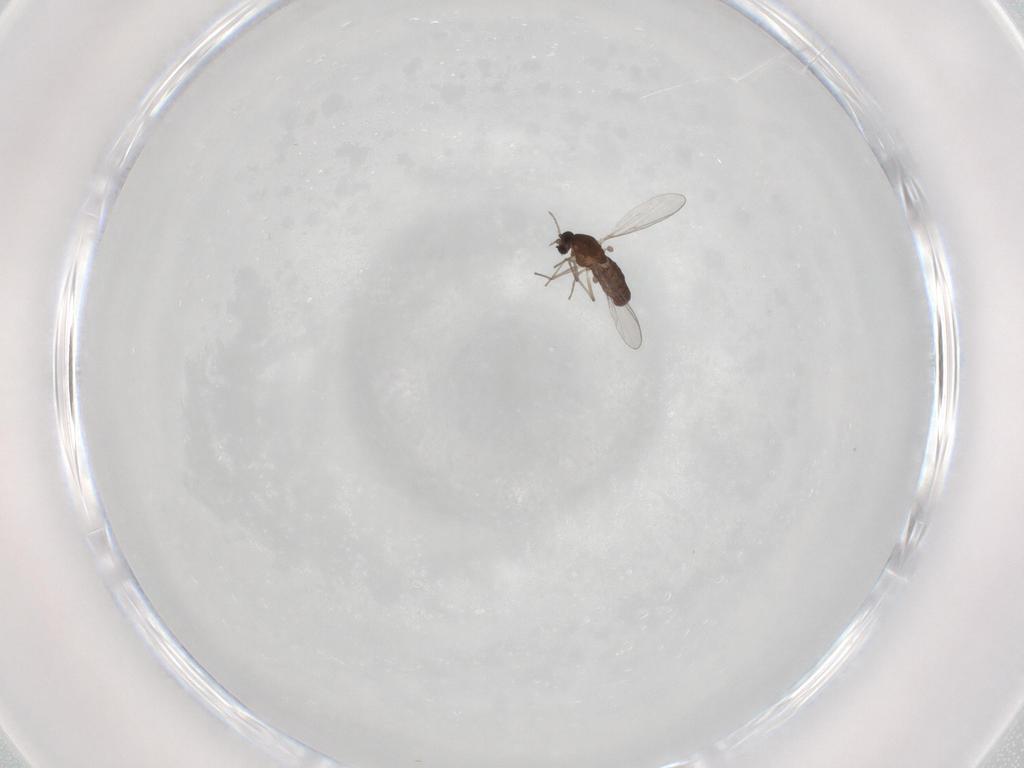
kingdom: Animalia
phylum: Arthropoda
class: Insecta
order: Diptera
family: Chironomidae
